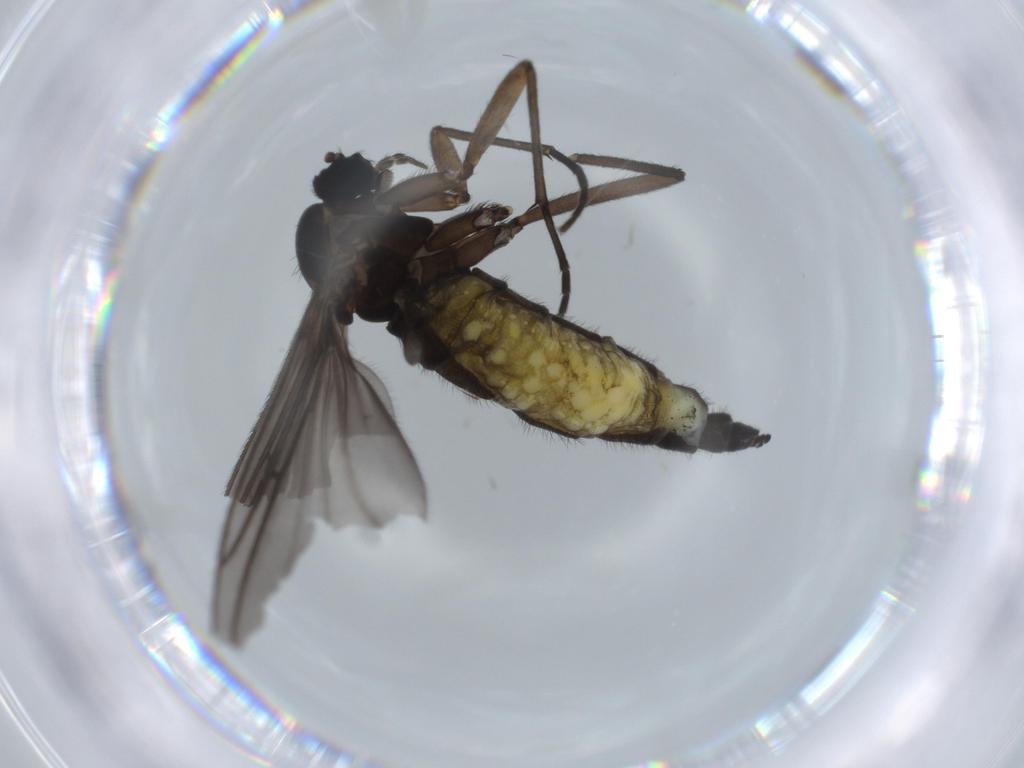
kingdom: Animalia
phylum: Arthropoda
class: Insecta
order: Diptera
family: Sciaridae
